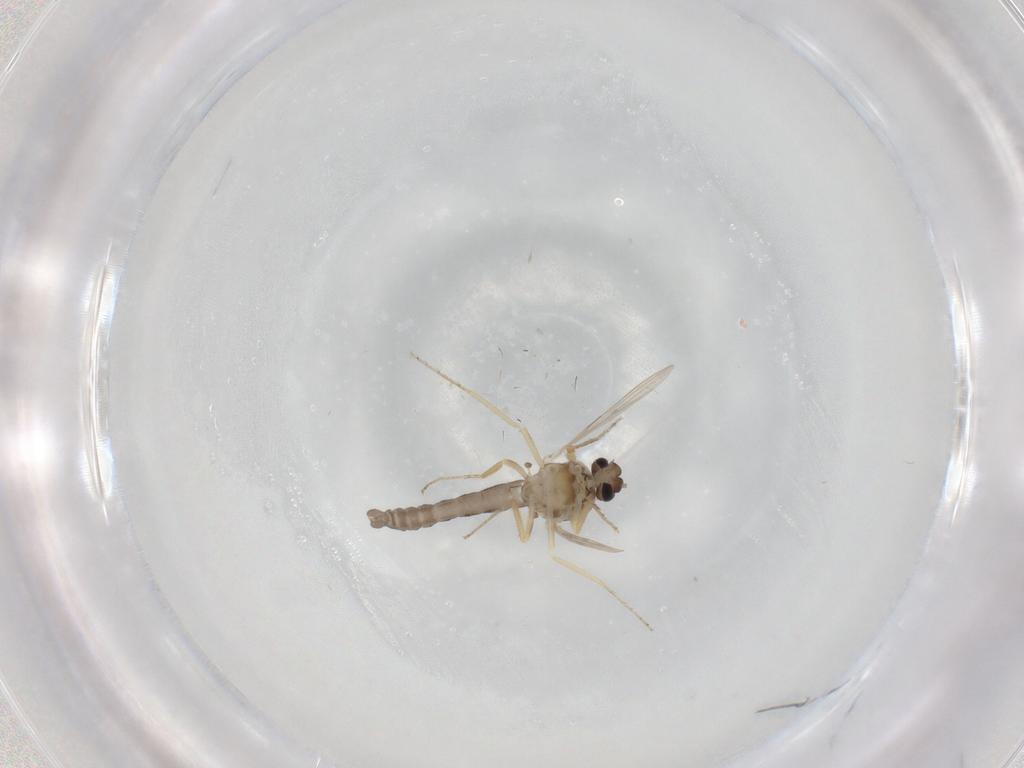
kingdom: Animalia
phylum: Arthropoda
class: Insecta
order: Diptera
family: Ceratopogonidae
